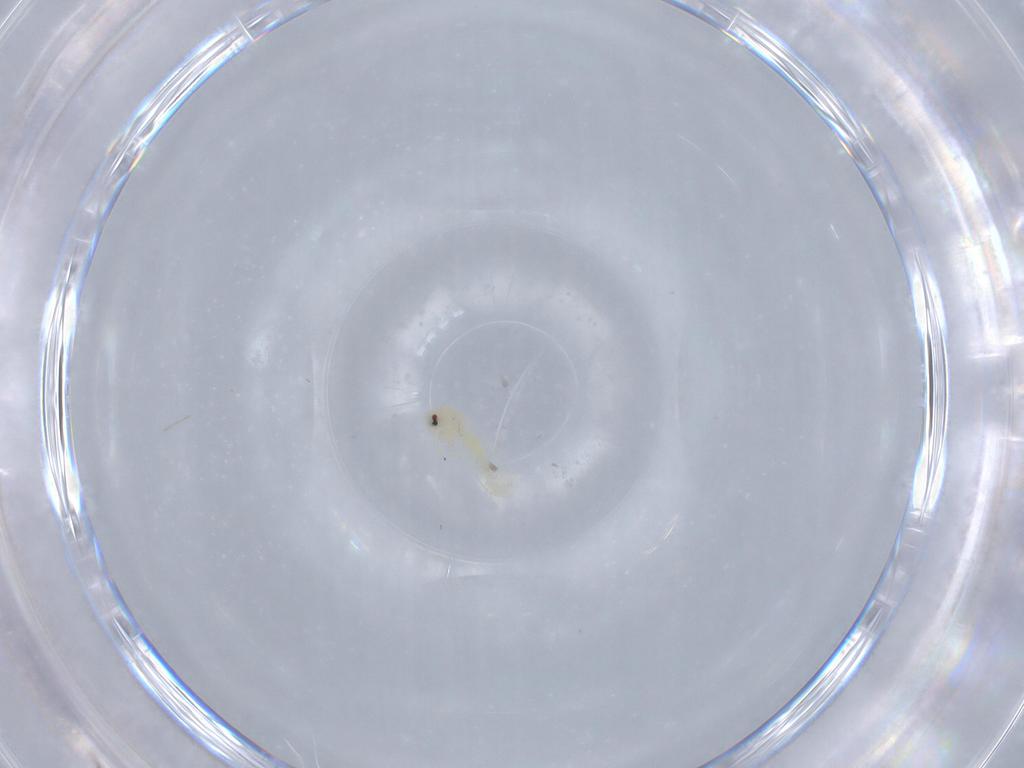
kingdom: Animalia
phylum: Arthropoda
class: Insecta
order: Hemiptera
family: Aleyrodidae
